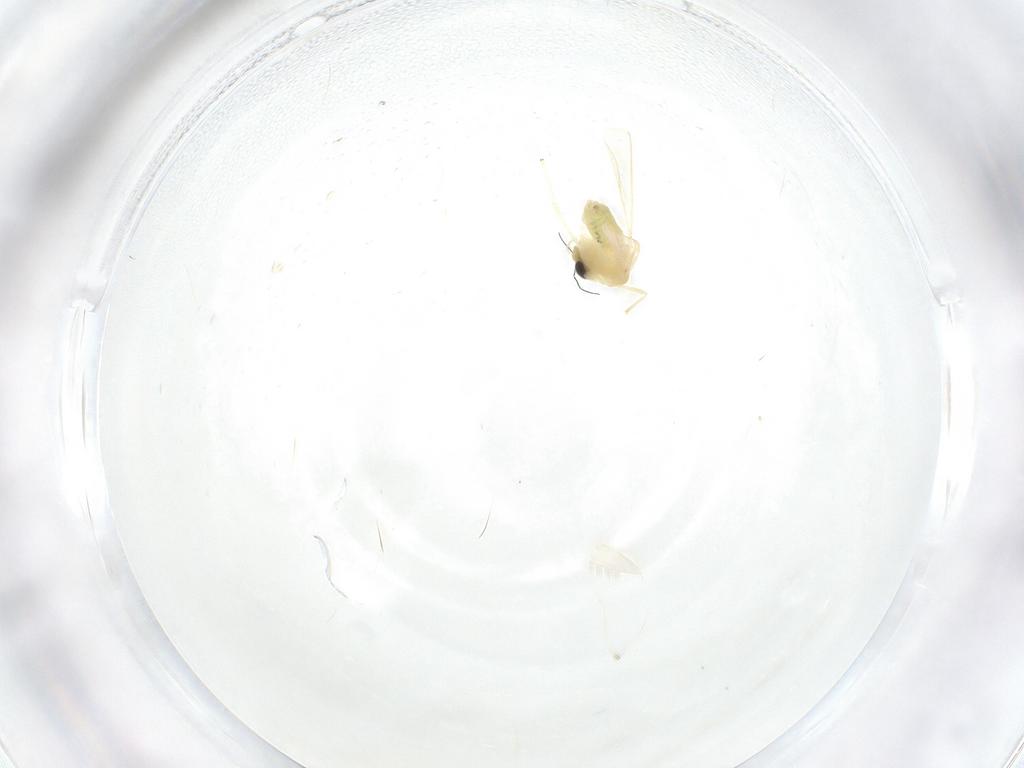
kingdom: Animalia
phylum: Arthropoda
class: Insecta
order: Diptera
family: Chironomidae
